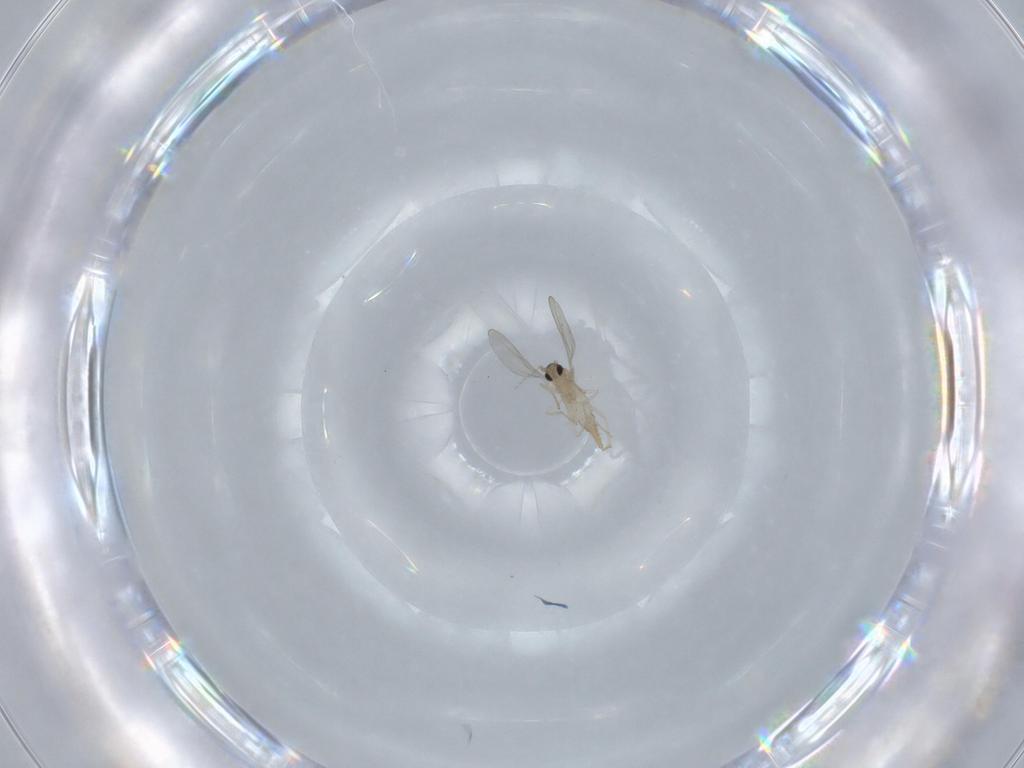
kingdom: Animalia
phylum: Arthropoda
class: Insecta
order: Diptera
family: Cecidomyiidae
